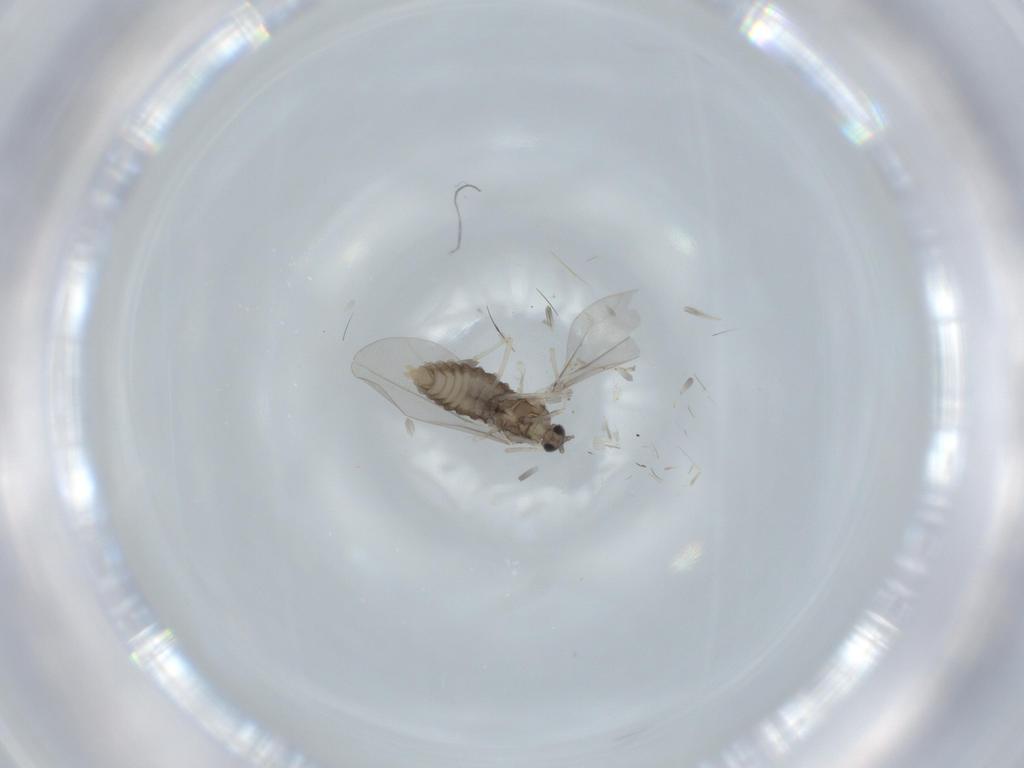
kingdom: Animalia
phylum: Arthropoda
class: Insecta
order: Diptera
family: Cecidomyiidae
